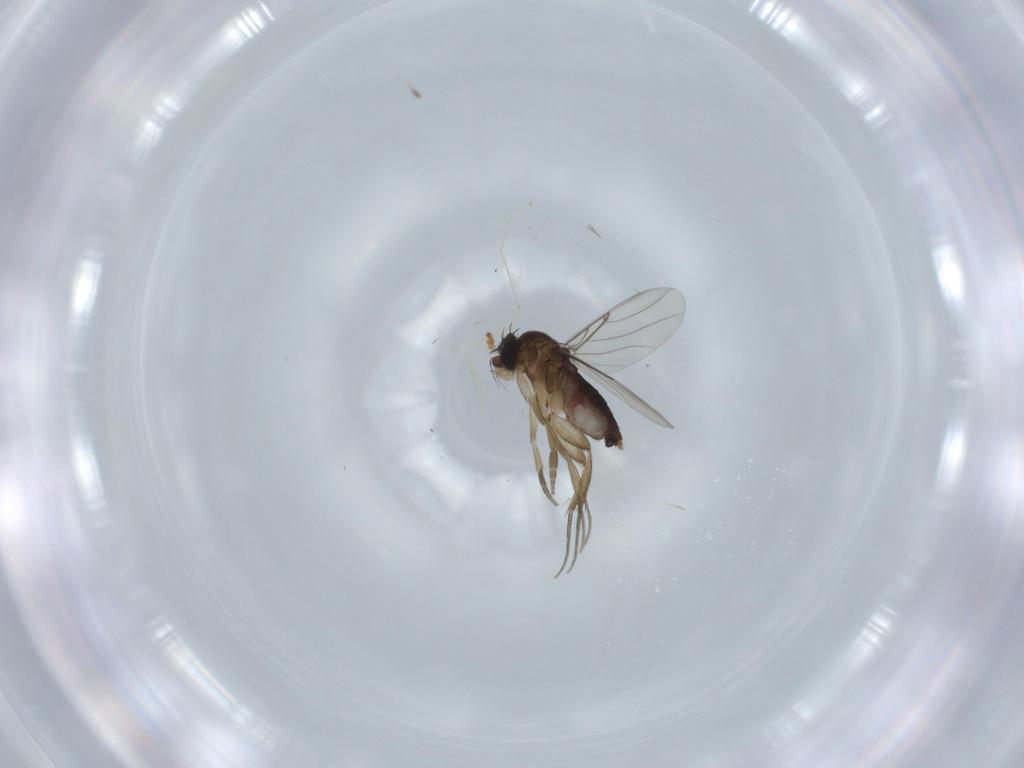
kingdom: Animalia
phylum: Arthropoda
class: Insecta
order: Diptera
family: Phoridae
